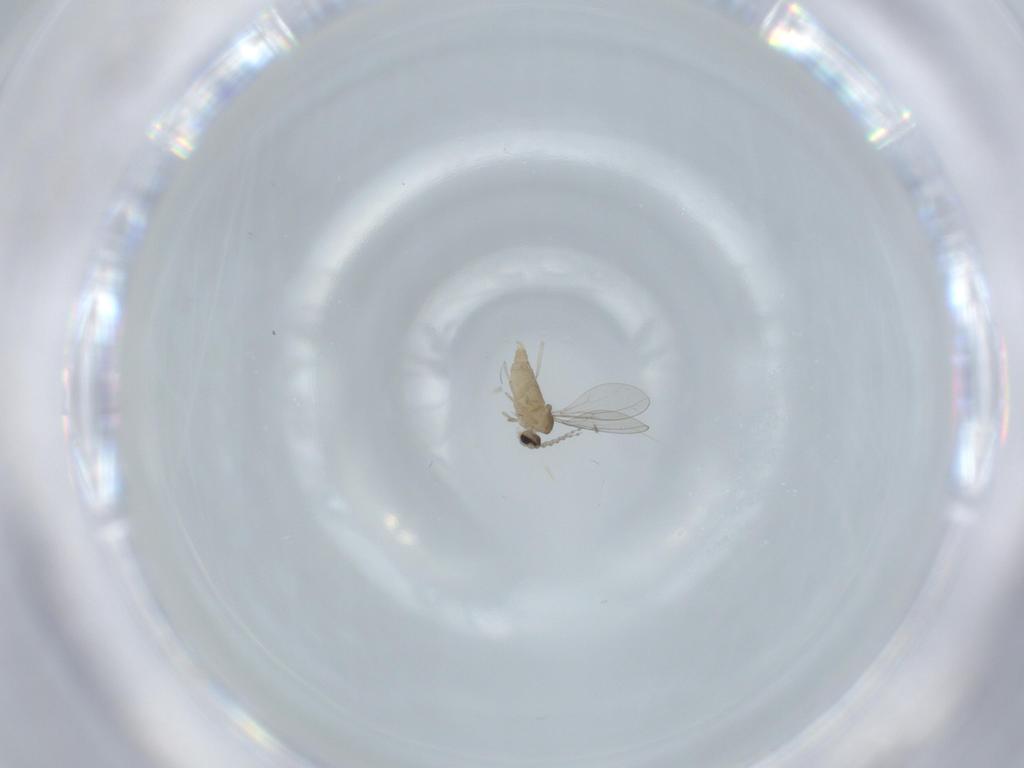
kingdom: Animalia
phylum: Arthropoda
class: Insecta
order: Diptera
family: Cecidomyiidae
